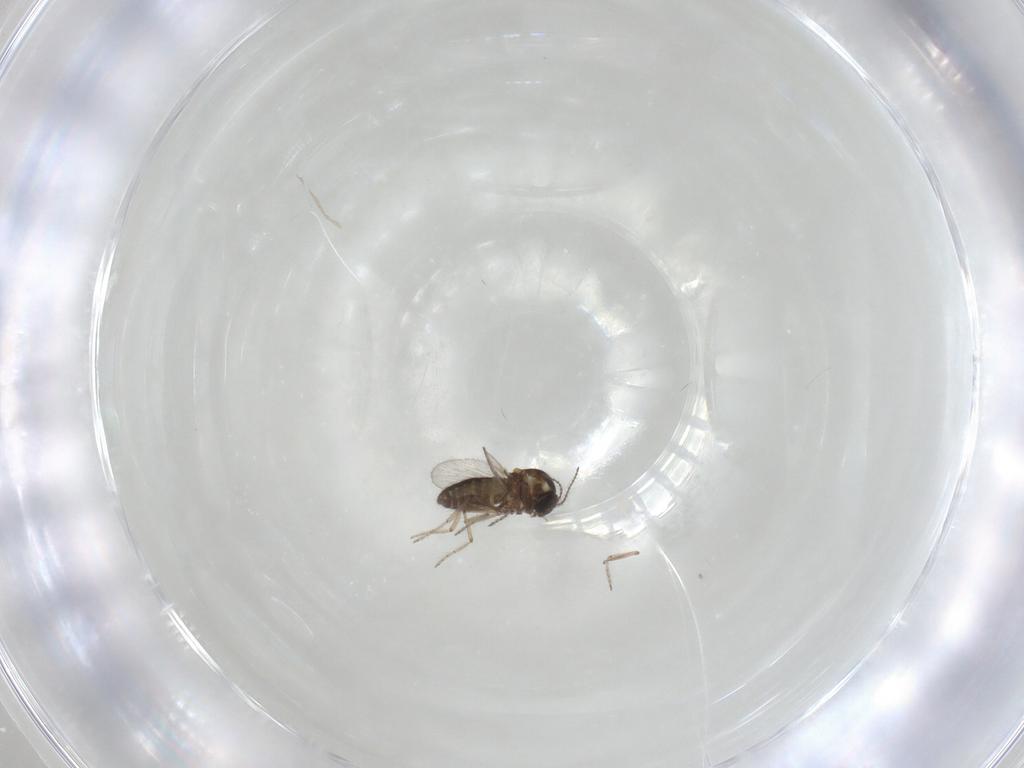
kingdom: Animalia
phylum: Arthropoda
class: Insecta
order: Diptera
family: Ceratopogonidae
